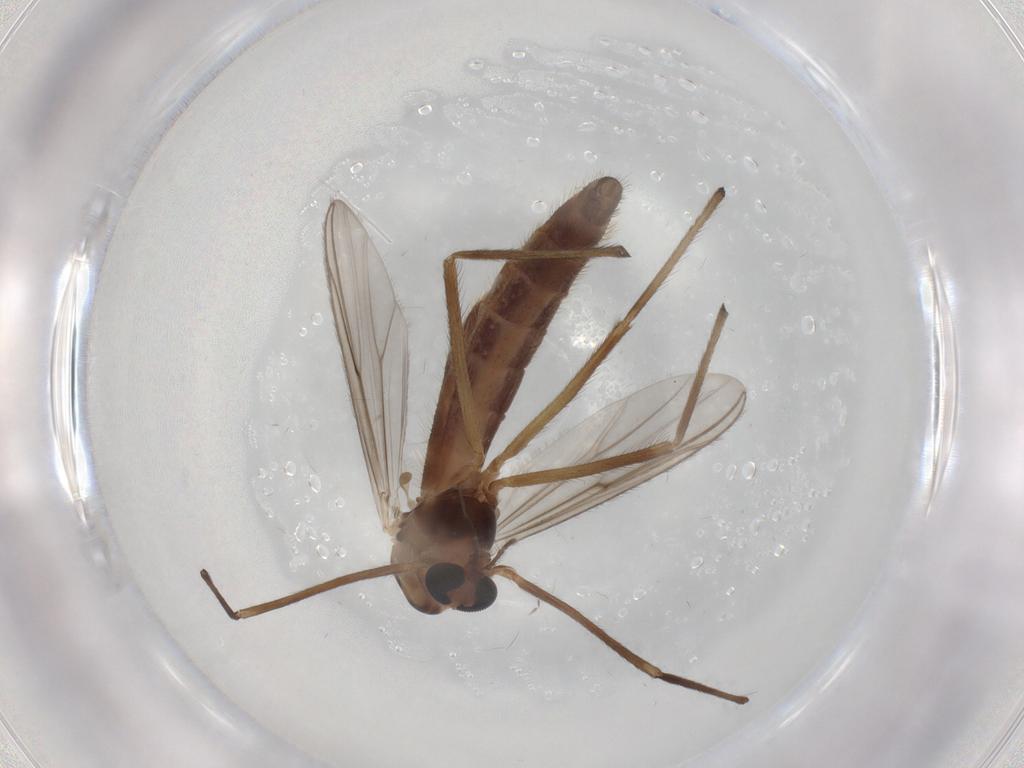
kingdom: Animalia
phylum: Arthropoda
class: Insecta
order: Diptera
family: Chironomidae
